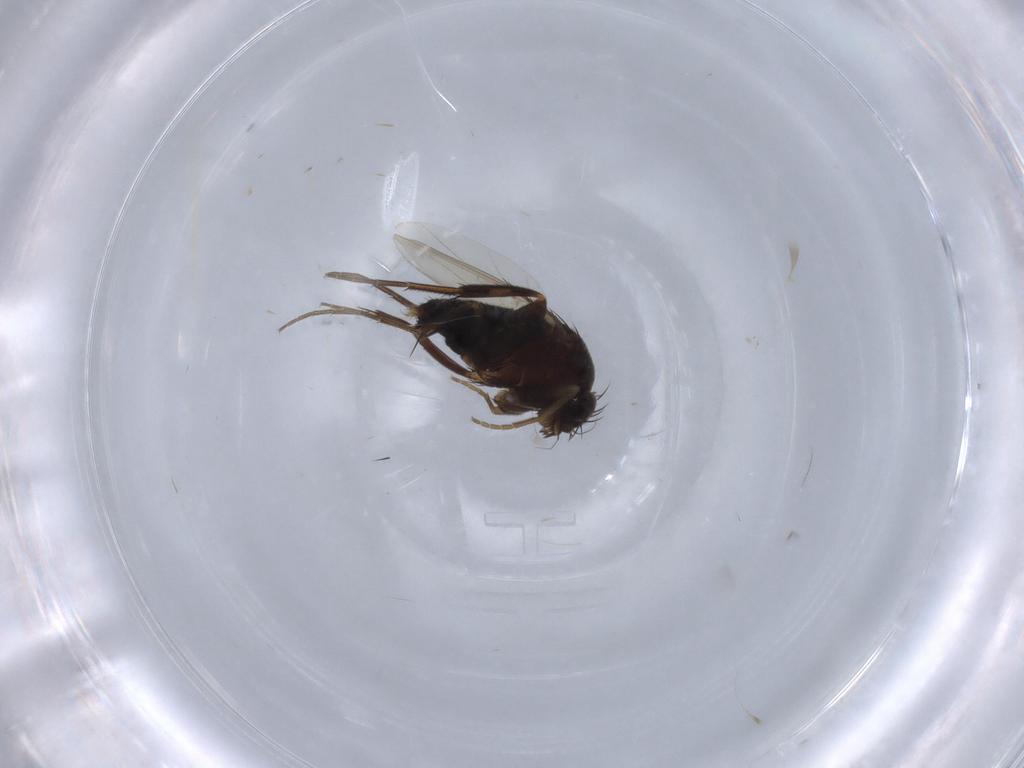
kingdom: Animalia
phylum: Arthropoda
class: Insecta
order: Diptera
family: Phoridae
